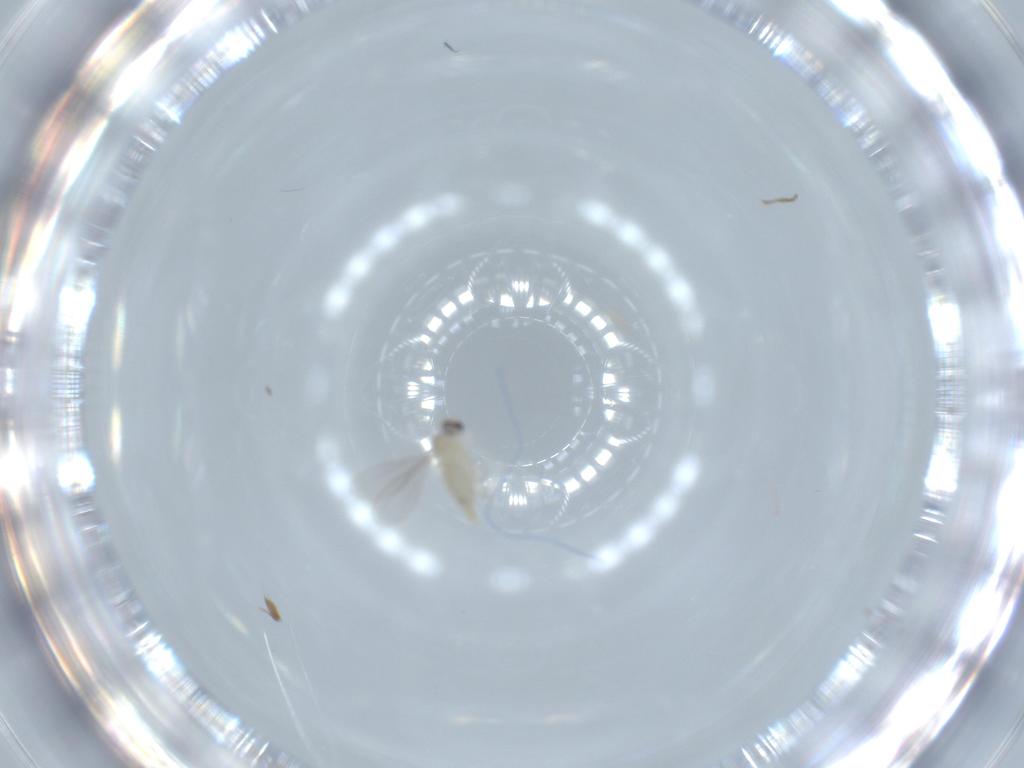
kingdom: Animalia
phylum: Arthropoda
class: Insecta
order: Diptera
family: Cecidomyiidae
